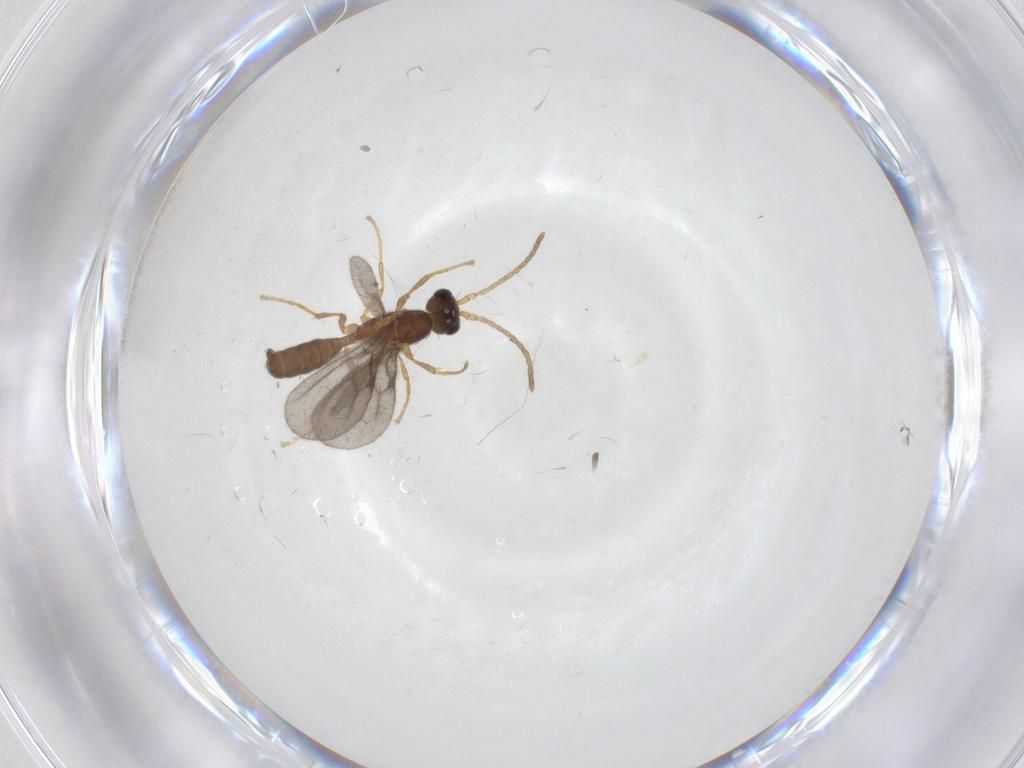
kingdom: Animalia
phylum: Arthropoda
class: Insecta
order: Hymenoptera
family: Formicidae
